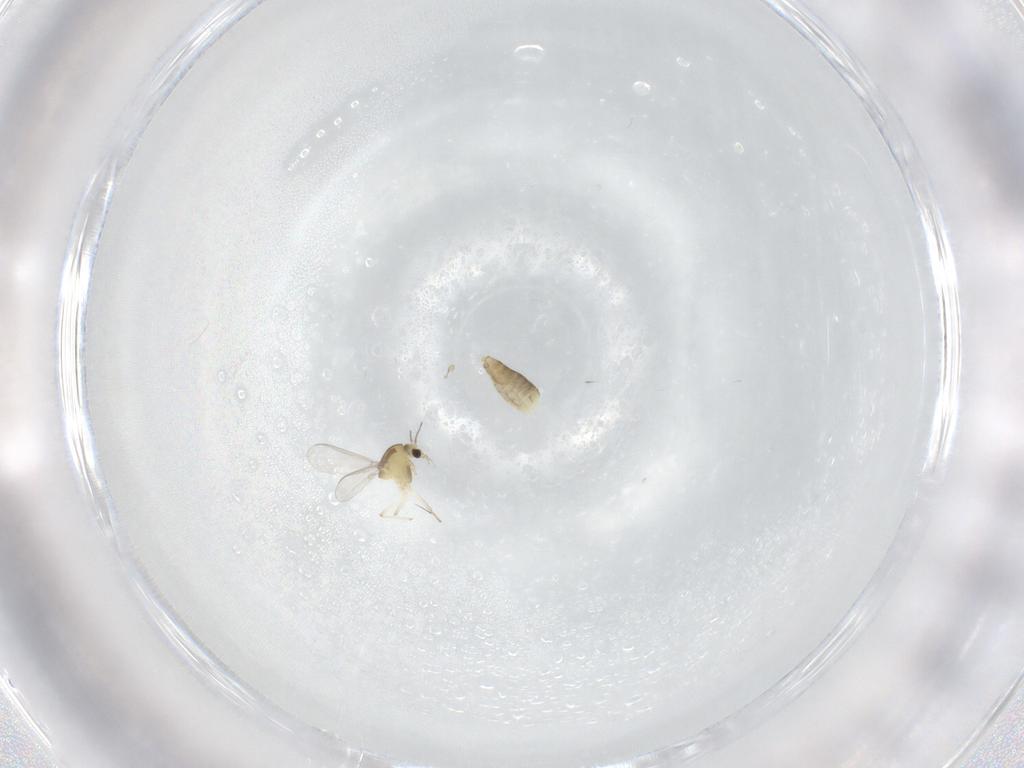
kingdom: Animalia
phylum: Arthropoda
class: Insecta
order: Diptera
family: Chironomidae
